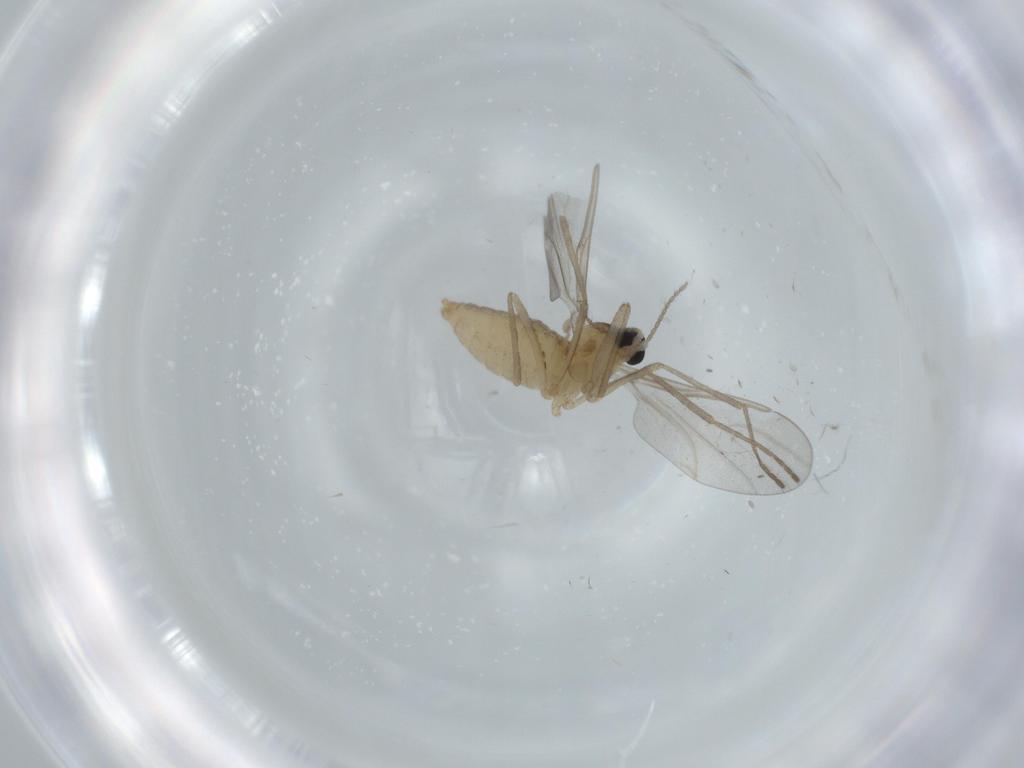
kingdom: Animalia
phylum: Arthropoda
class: Insecta
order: Diptera
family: Cecidomyiidae
